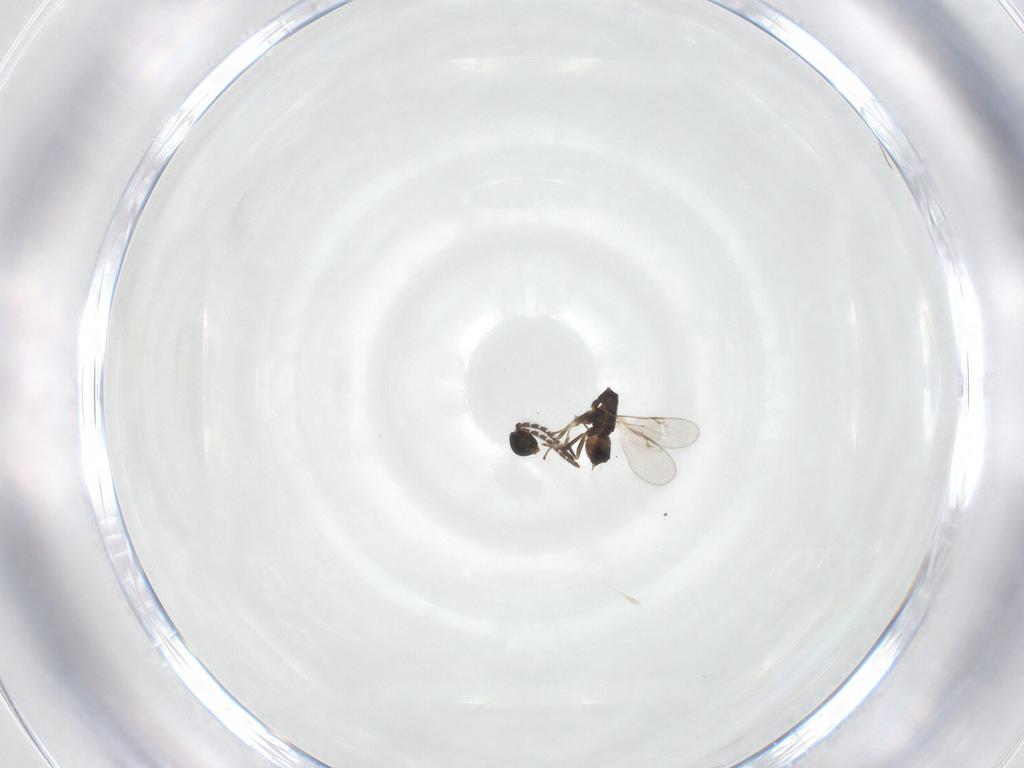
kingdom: Animalia
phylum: Arthropoda
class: Insecta
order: Hymenoptera
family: Encyrtidae
